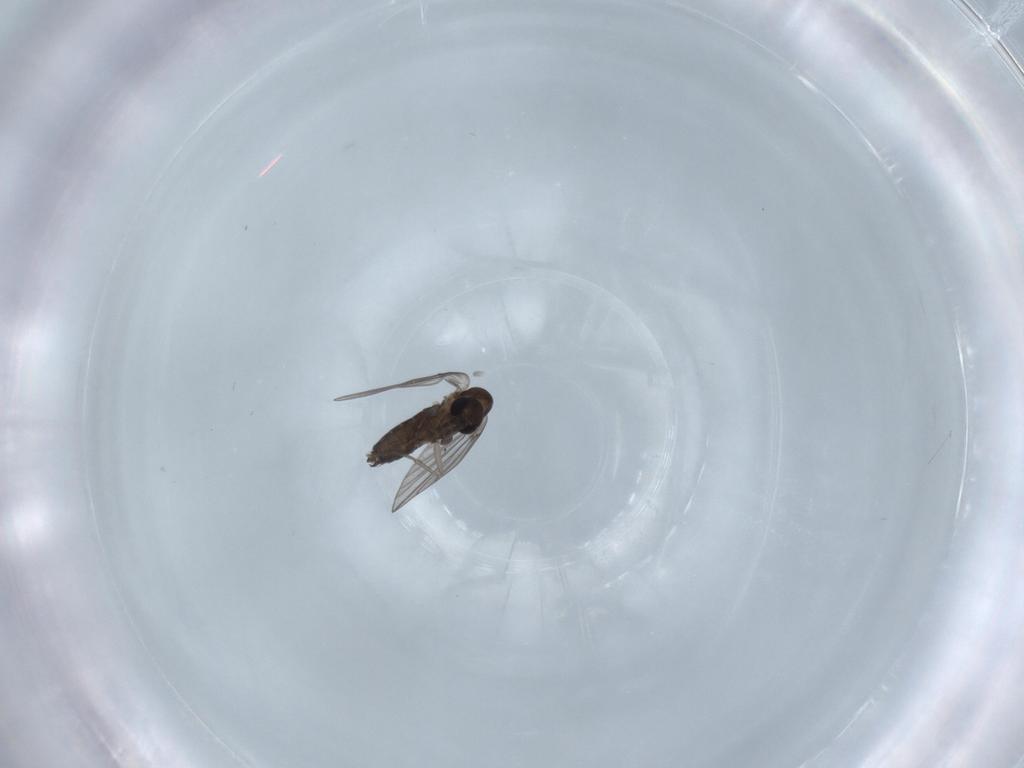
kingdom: Animalia
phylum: Arthropoda
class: Insecta
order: Diptera
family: Psychodidae
